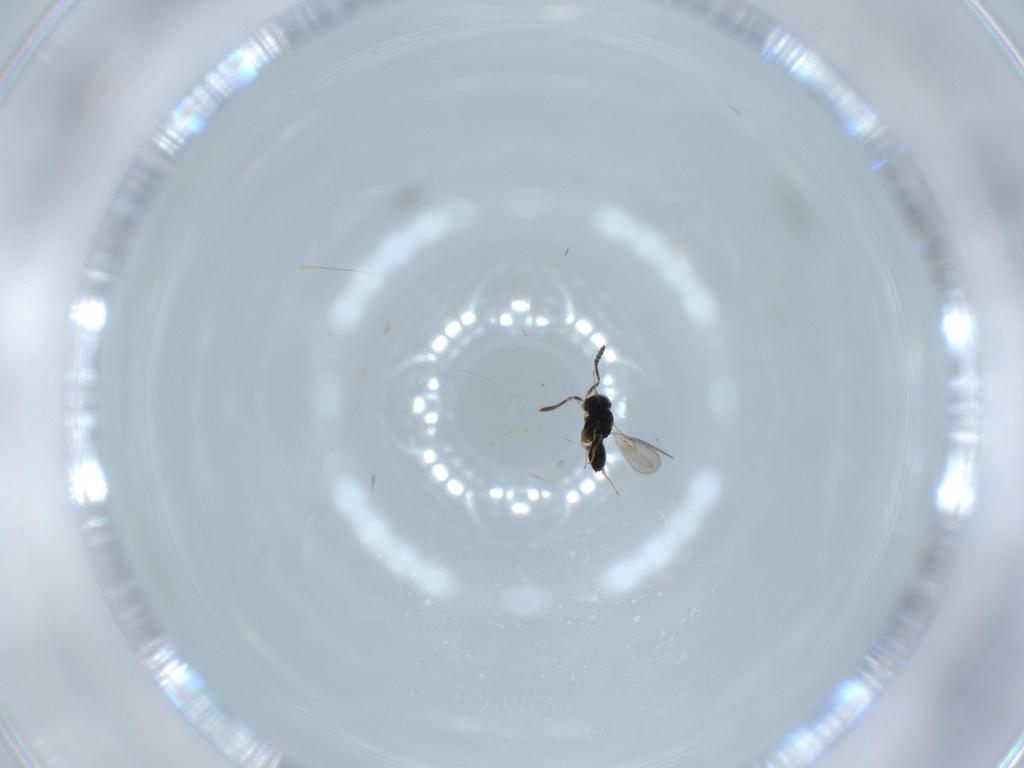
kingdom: Animalia
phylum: Arthropoda
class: Insecta
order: Hymenoptera
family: Scelionidae
